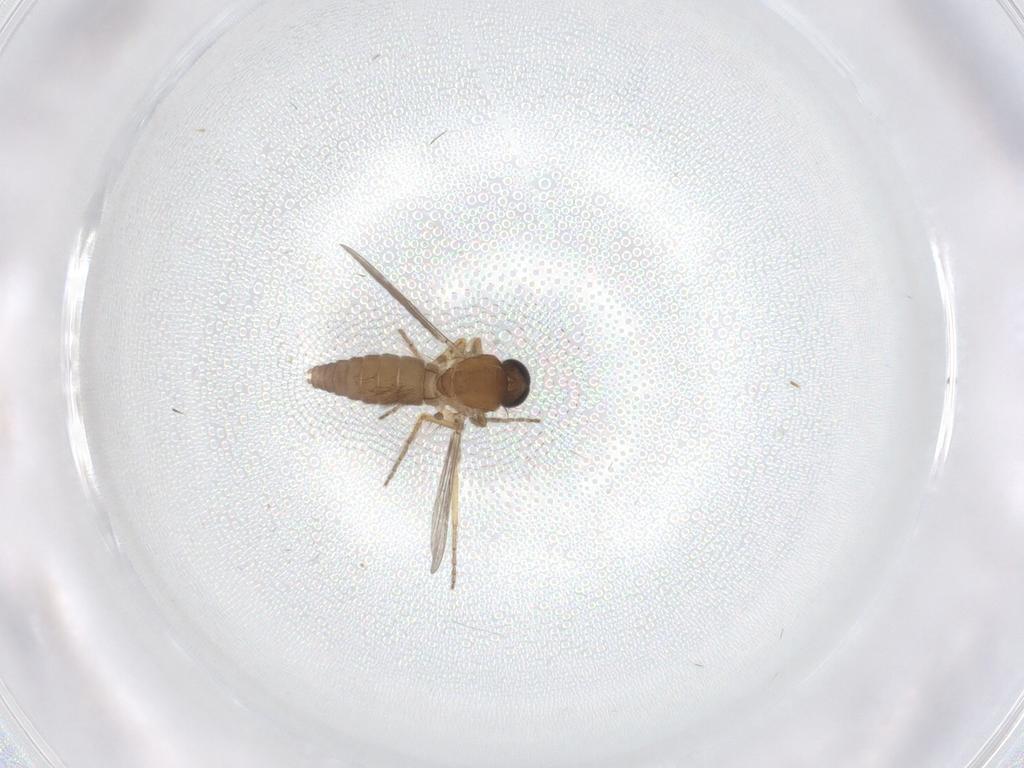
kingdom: Animalia
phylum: Arthropoda
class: Insecta
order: Diptera
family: Ceratopogonidae
